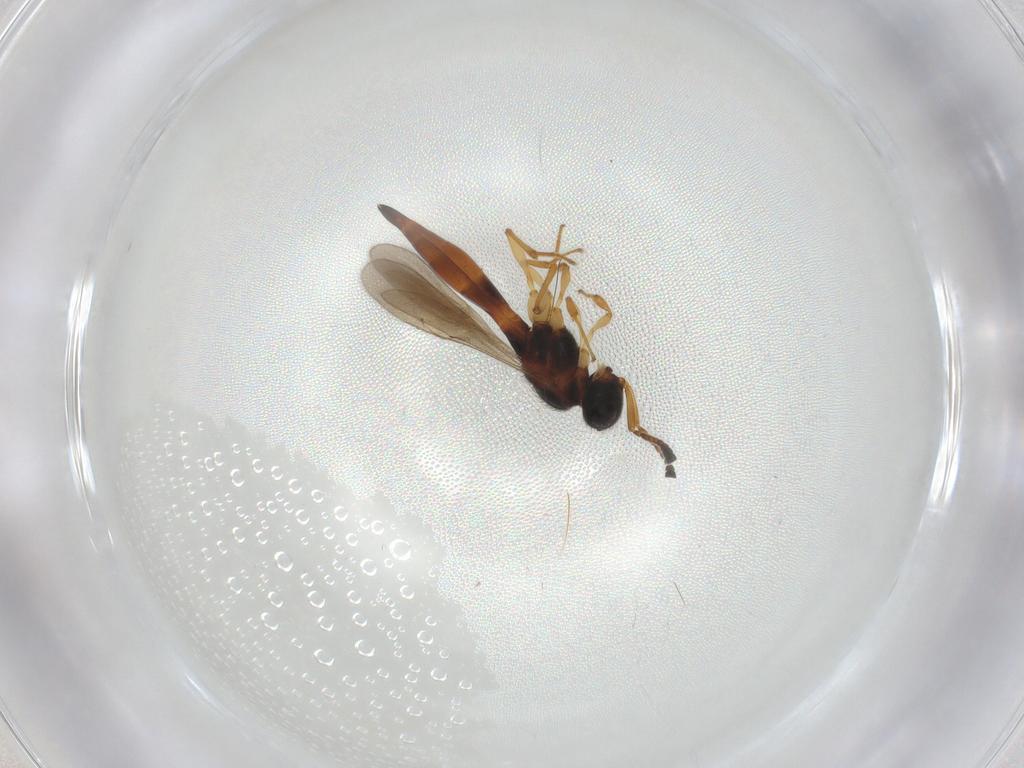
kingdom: Animalia
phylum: Arthropoda
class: Insecta
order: Hymenoptera
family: Scelionidae
